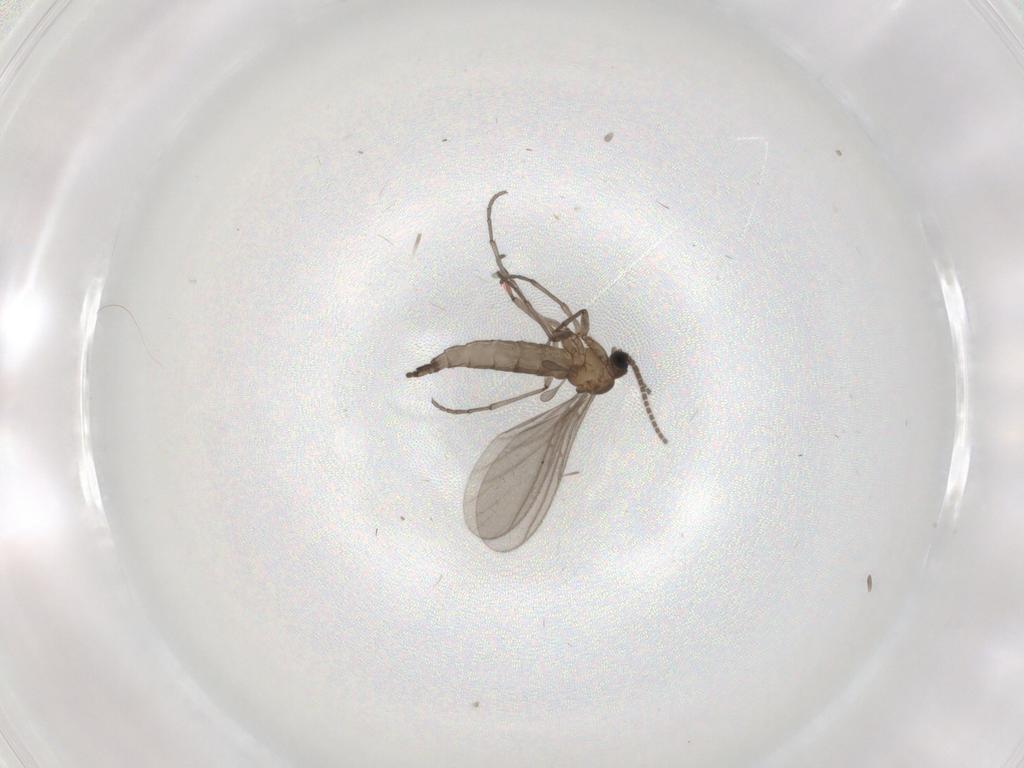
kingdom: Animalia
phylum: Arthropoda
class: Insecta
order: Diptera
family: Sciaridae
